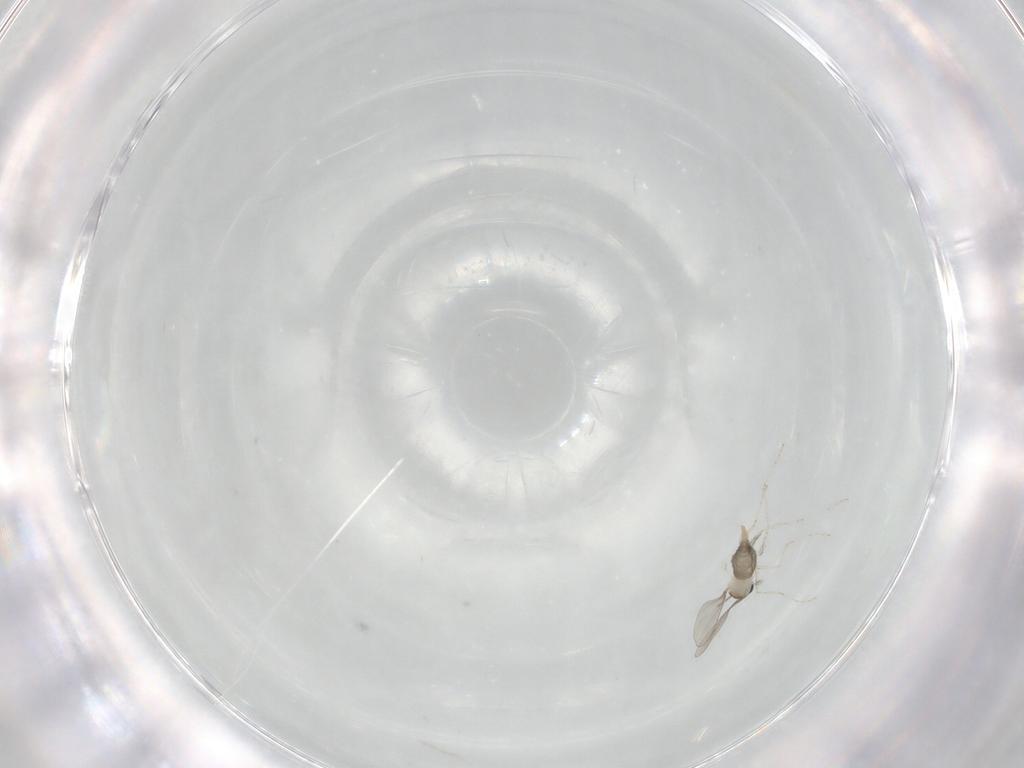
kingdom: Animalia
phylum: Arthropoda
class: Insecta
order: Diptera
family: Cecidomyiidae
